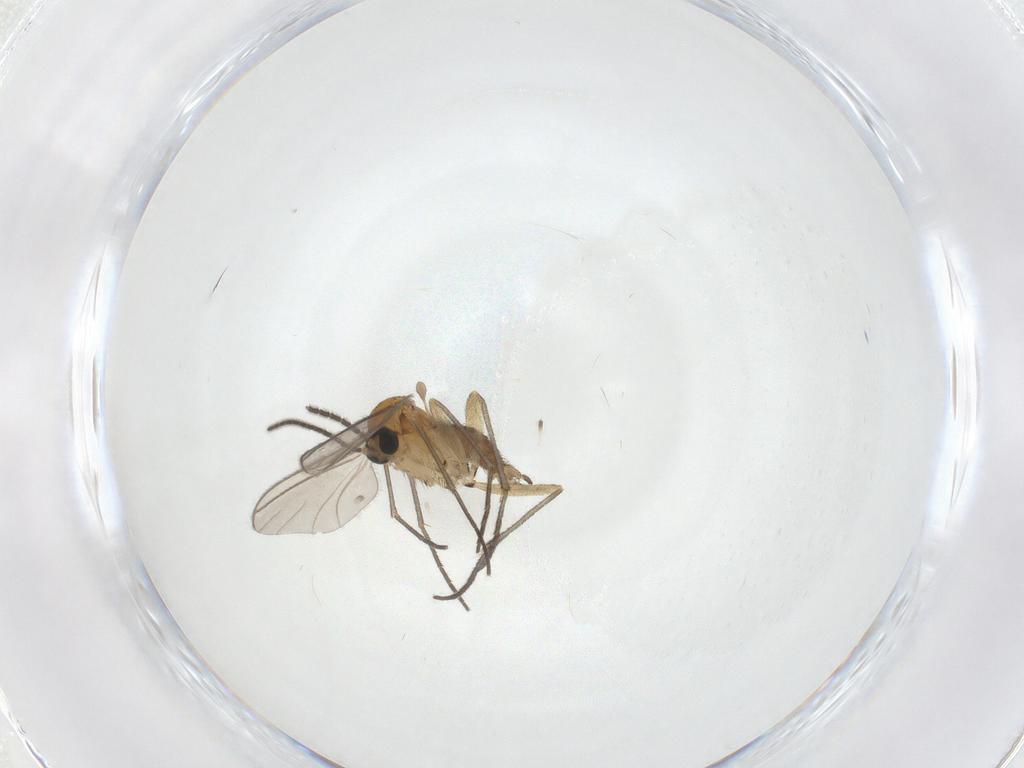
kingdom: Animalia
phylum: Arthropoda
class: Insecta
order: Diptera
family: Sciaridae
